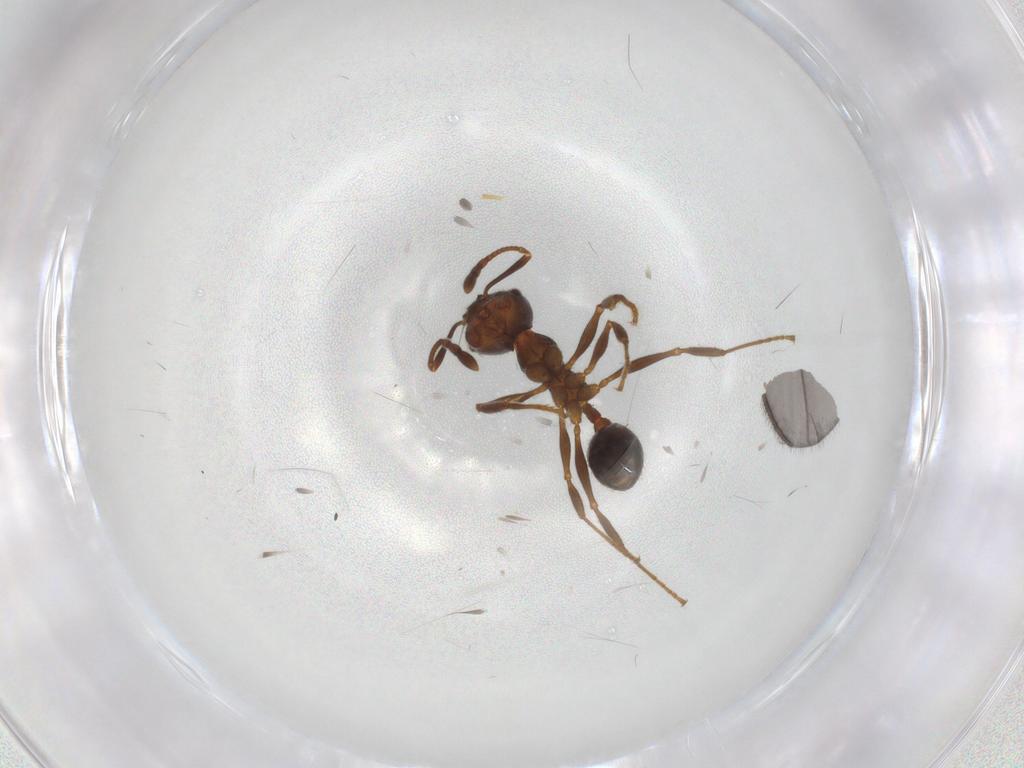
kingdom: Animalia
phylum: Arthropoda
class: Insecta
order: Hymenoptera
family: Formicidae
